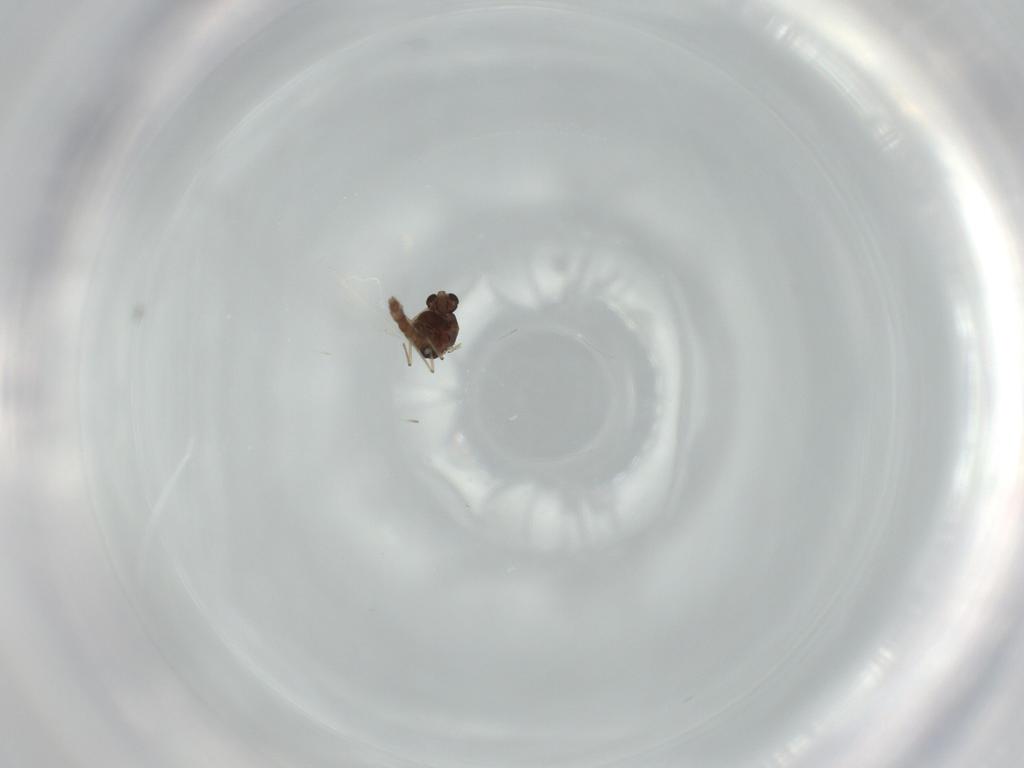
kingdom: Animalia
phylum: Arthropoda
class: Insecta
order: Diptera
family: Mycetophilidae
